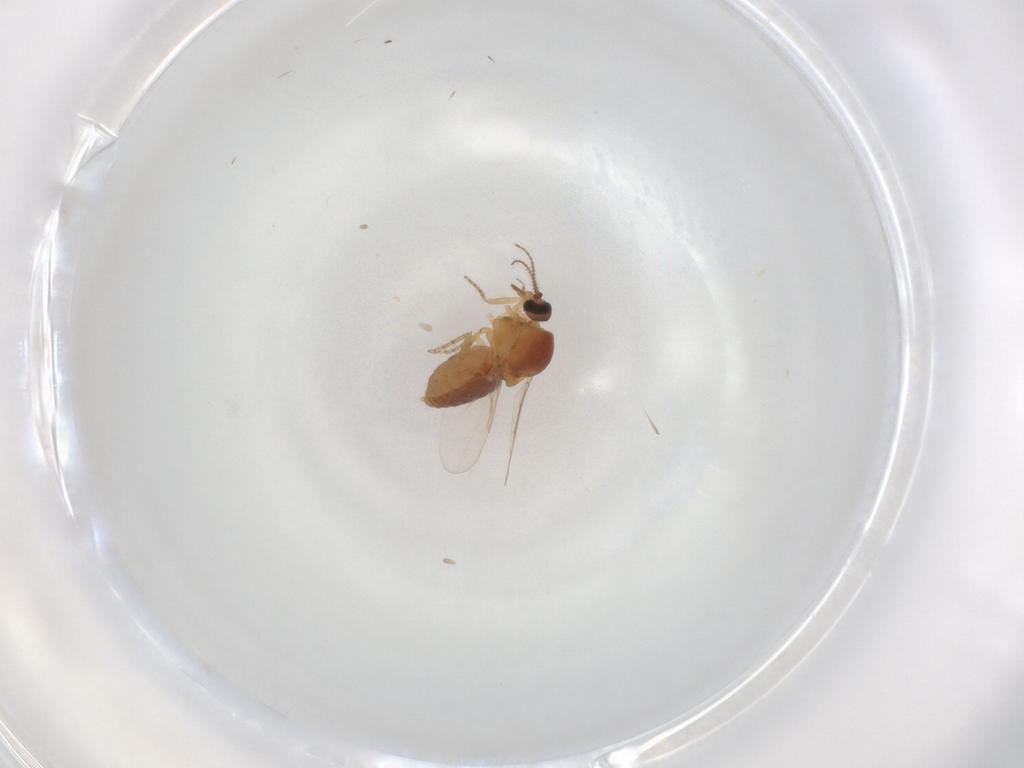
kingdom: Animalia
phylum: Arthropoda
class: Insecta
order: Diptera
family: Ceratopogonidae
